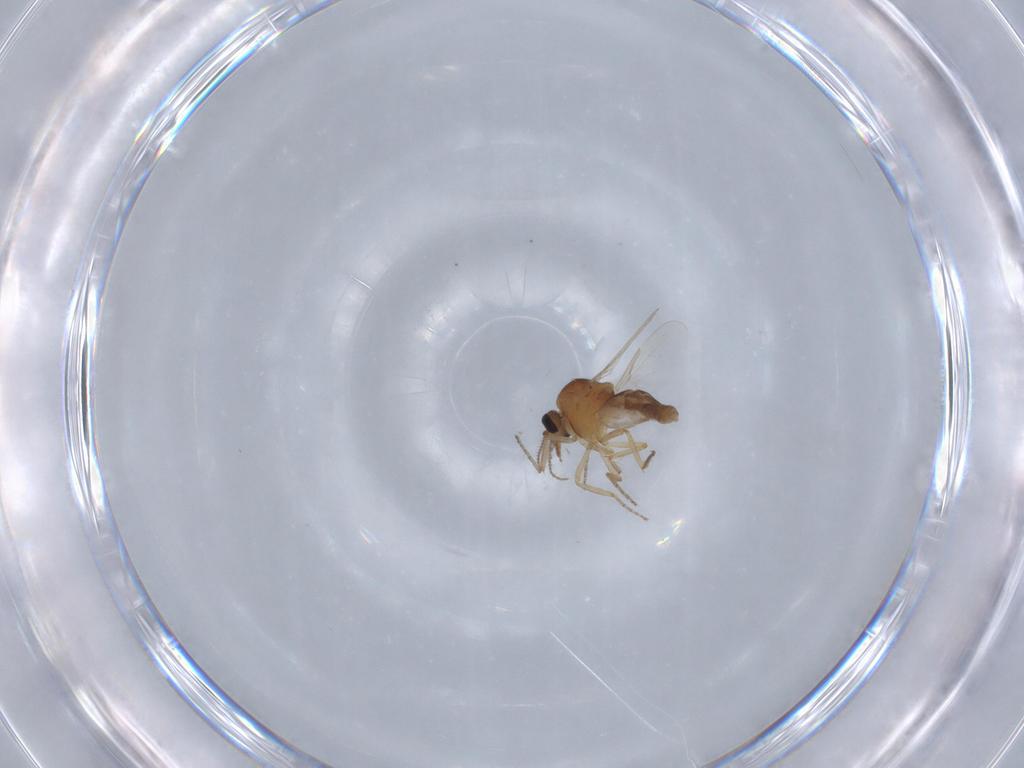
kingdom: Animalia
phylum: Arthropoda
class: Insecta
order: Diptera
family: Ceratopogonidae
